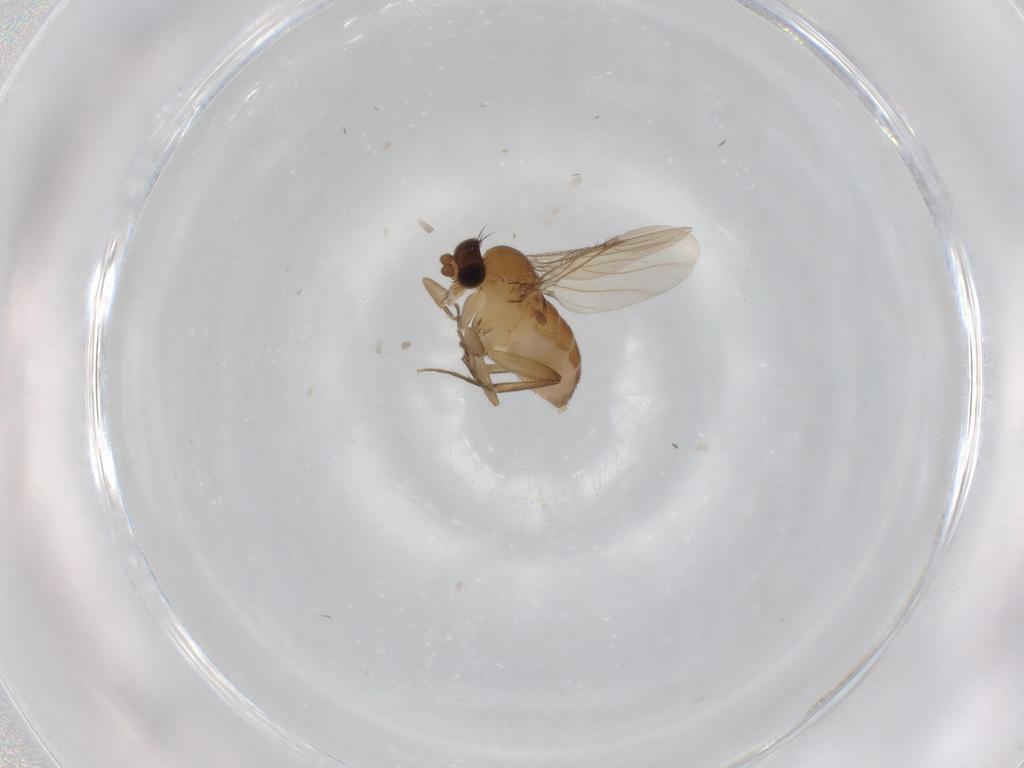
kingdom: Animalia
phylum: Arthropoda
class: Insecta
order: Diptera
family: Phoridae
